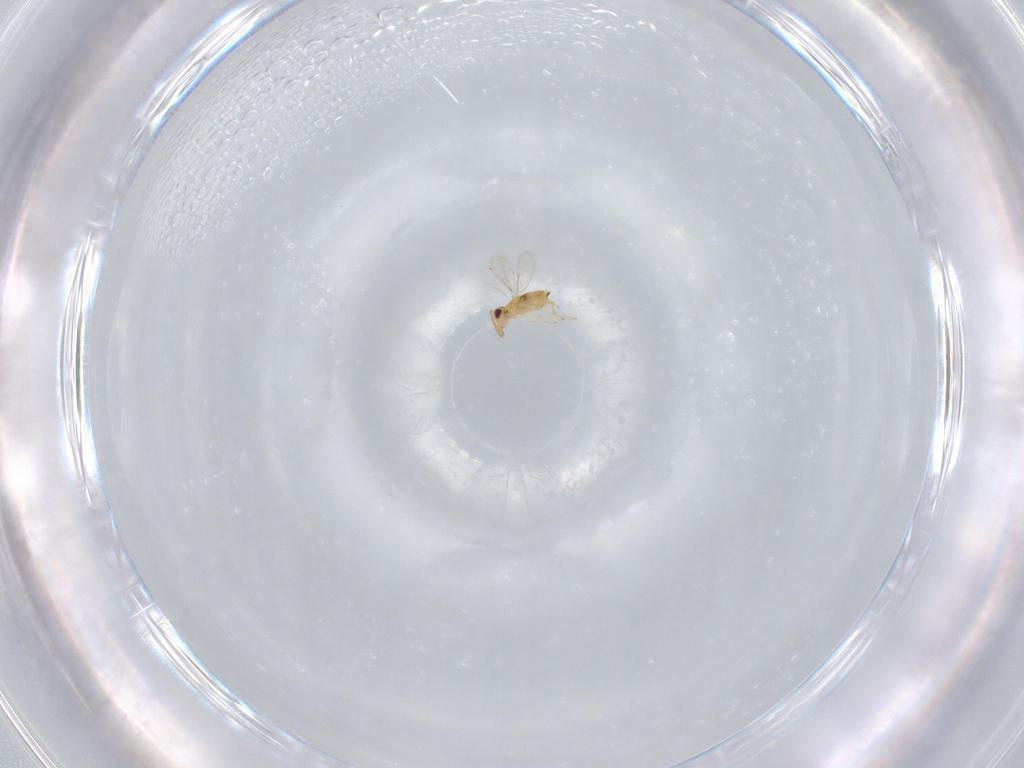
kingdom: Animalia
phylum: Arthropoda
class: Insecta
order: Hymenoptera
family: Aphelinidae
